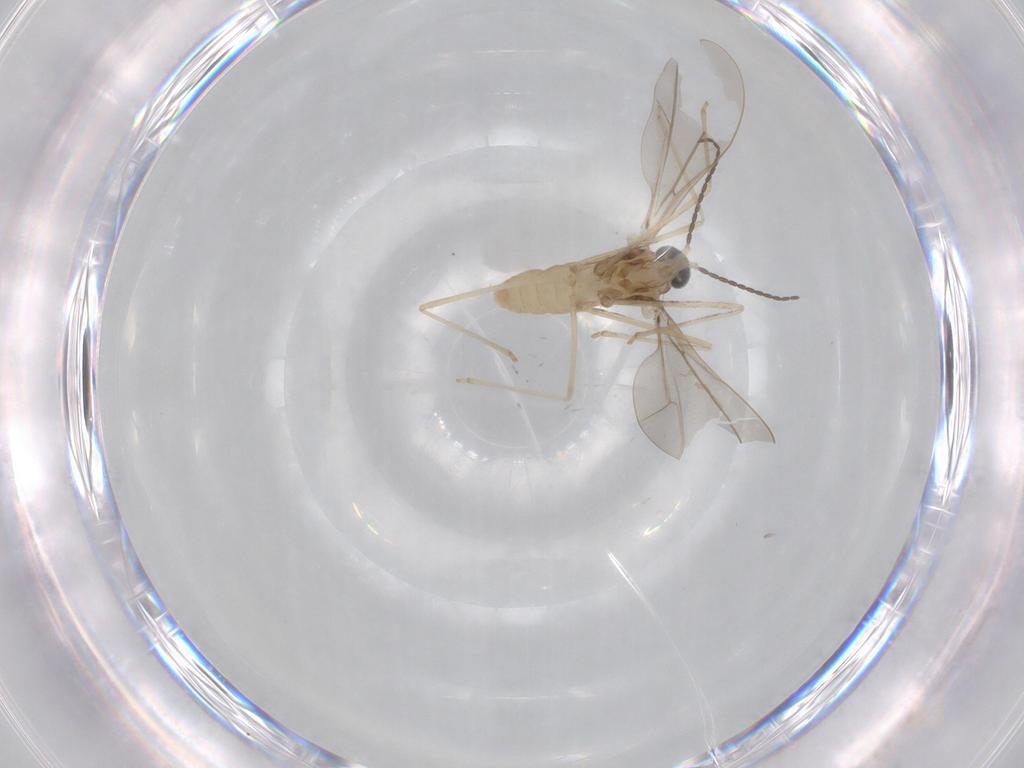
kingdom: Animalia
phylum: Arthropoda
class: Insecta
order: Diptera
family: Cecidomyiidae
